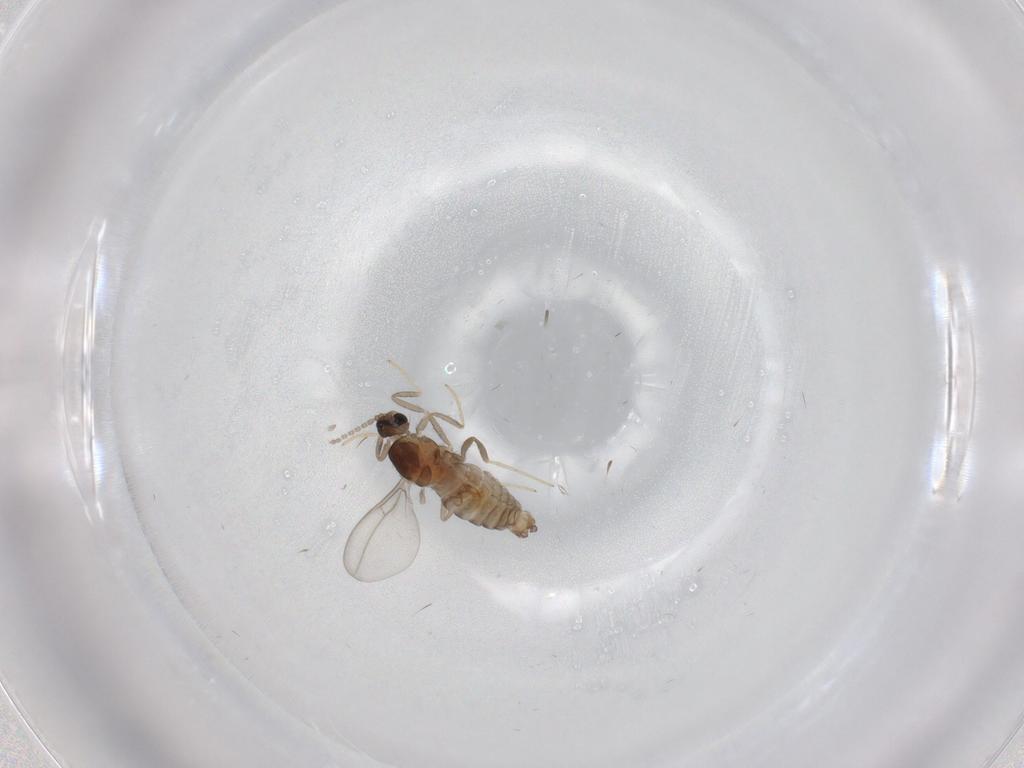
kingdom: Animalia
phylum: Arthropoda
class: Insecta
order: Diptera
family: Cecidomyiidae
